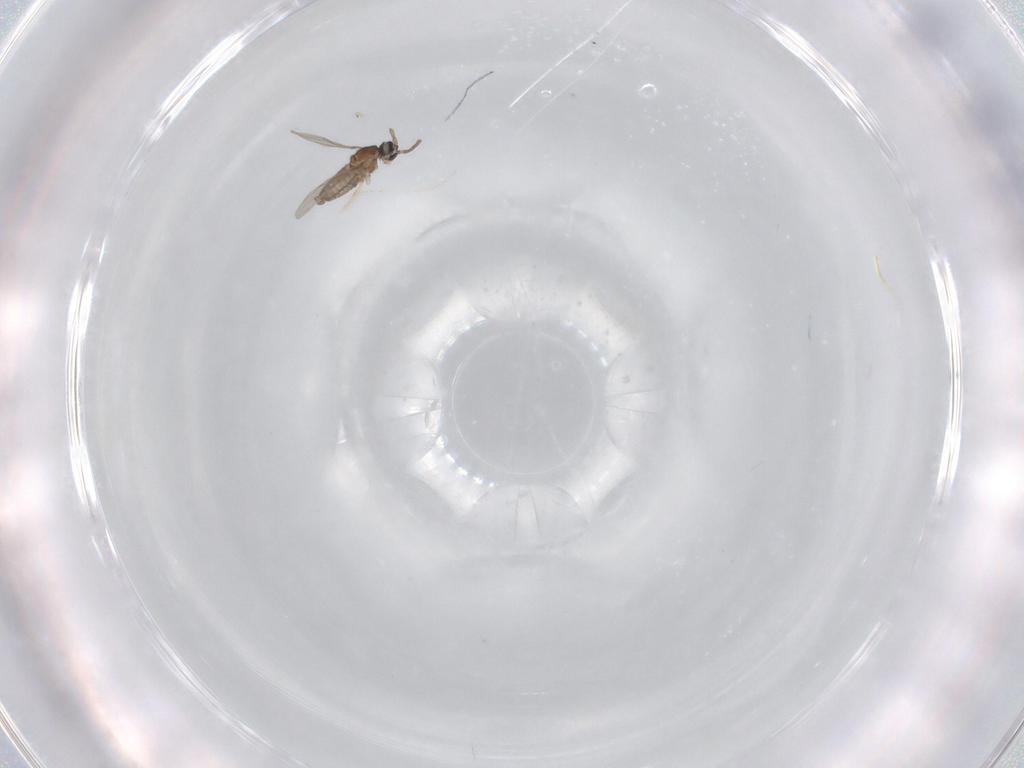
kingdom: Animalia
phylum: Arthropoda
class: Insecta
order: Diptera
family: Cecidomyiidae
